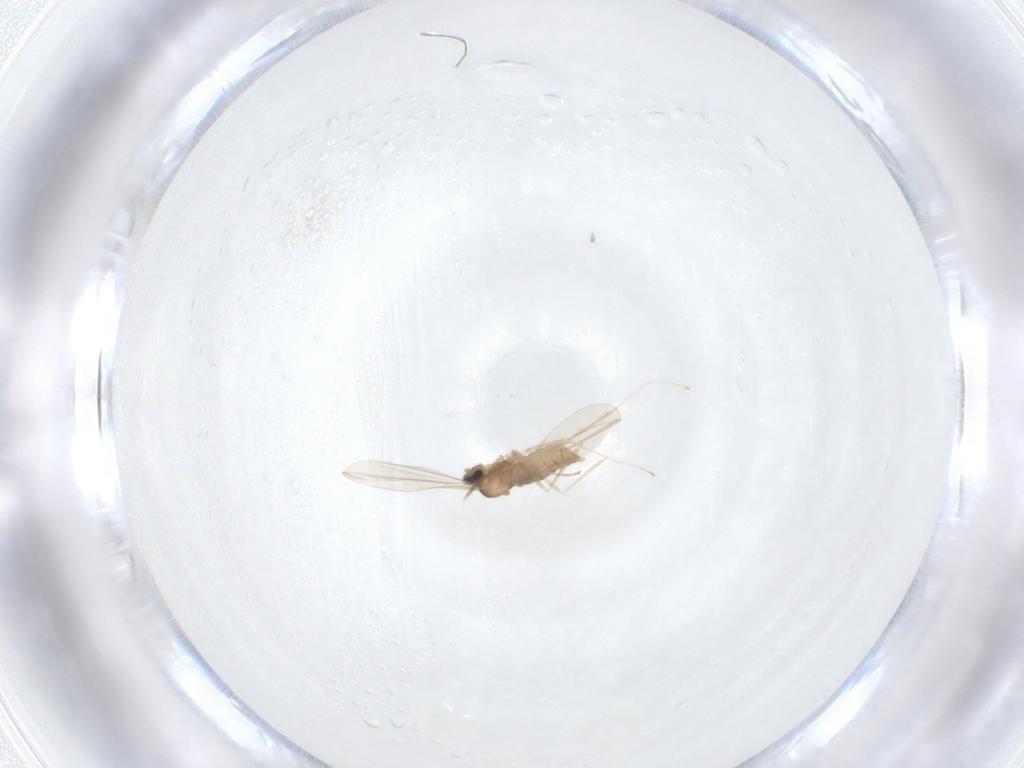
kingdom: Animalia
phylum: Arthropoda
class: Insecta
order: Diptera
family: Cecidomyiidae
